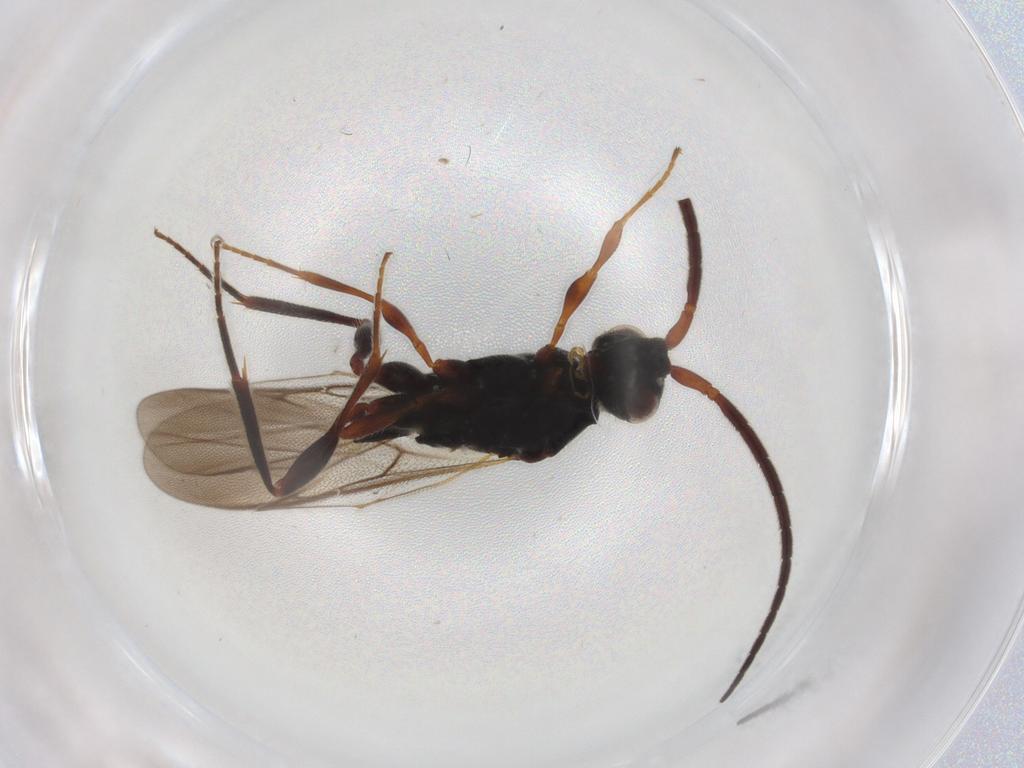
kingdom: Animalia
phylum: Arthropoda
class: Insecta
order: Hymenoptera
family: Diapriidae
